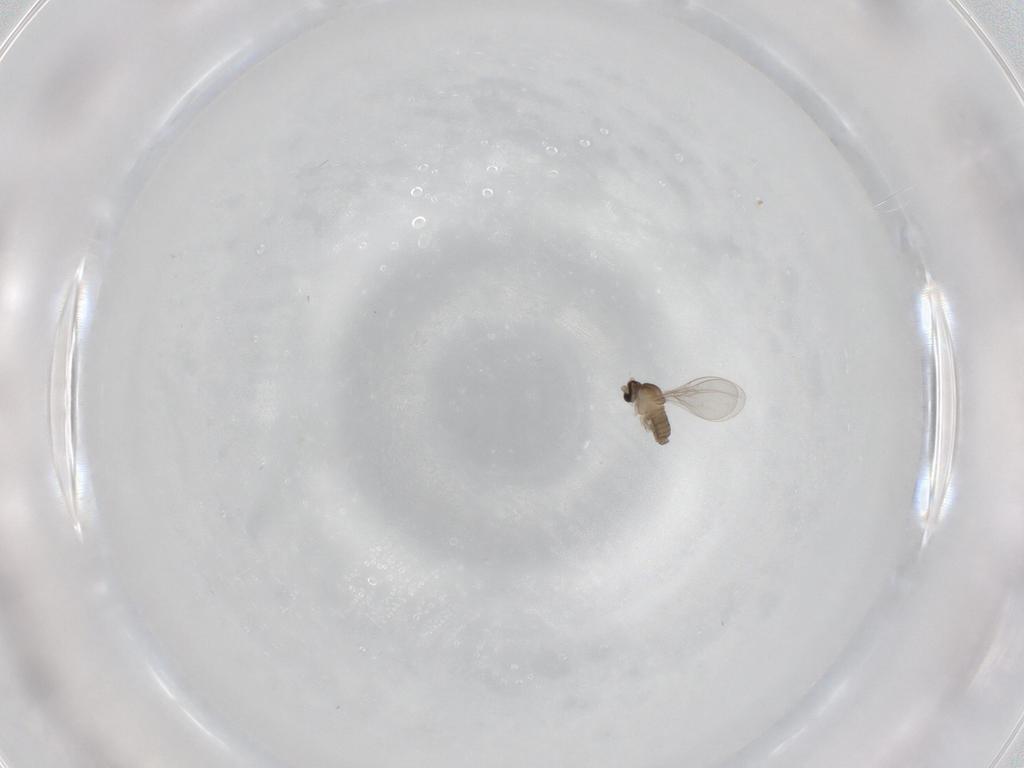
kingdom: Animalia
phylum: Arthropoda
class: Insecta
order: Diptera
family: Cecidomyiidae
